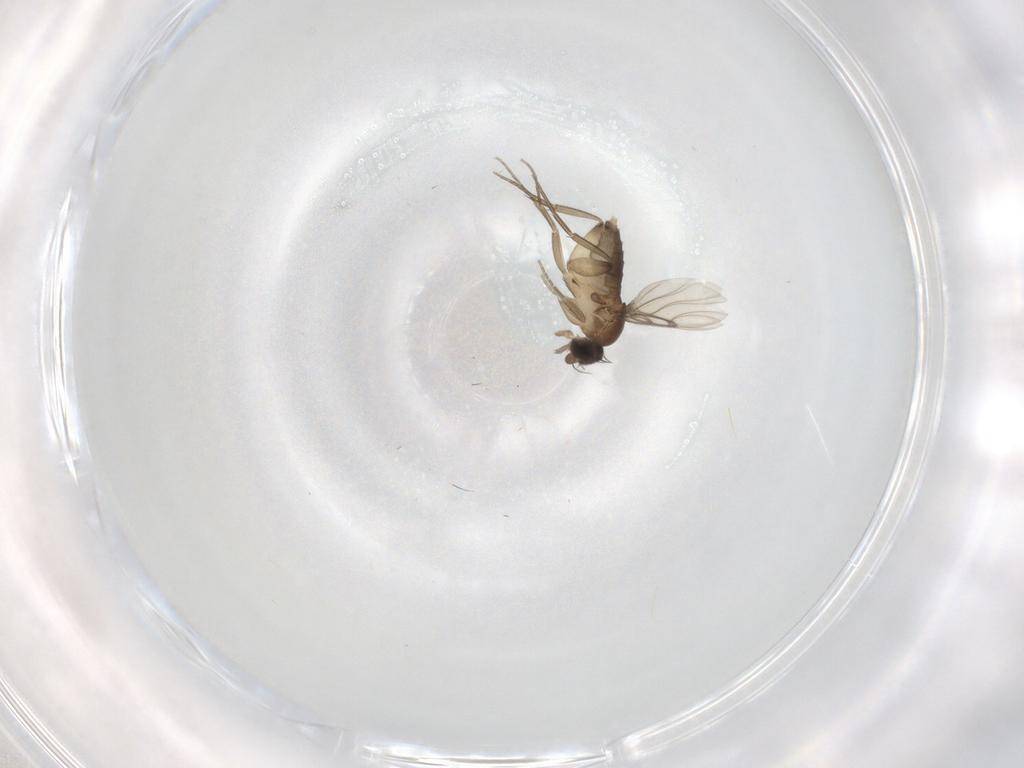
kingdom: Animalia
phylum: Arthropoda
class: Insecta
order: Diptera
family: Phoridae
